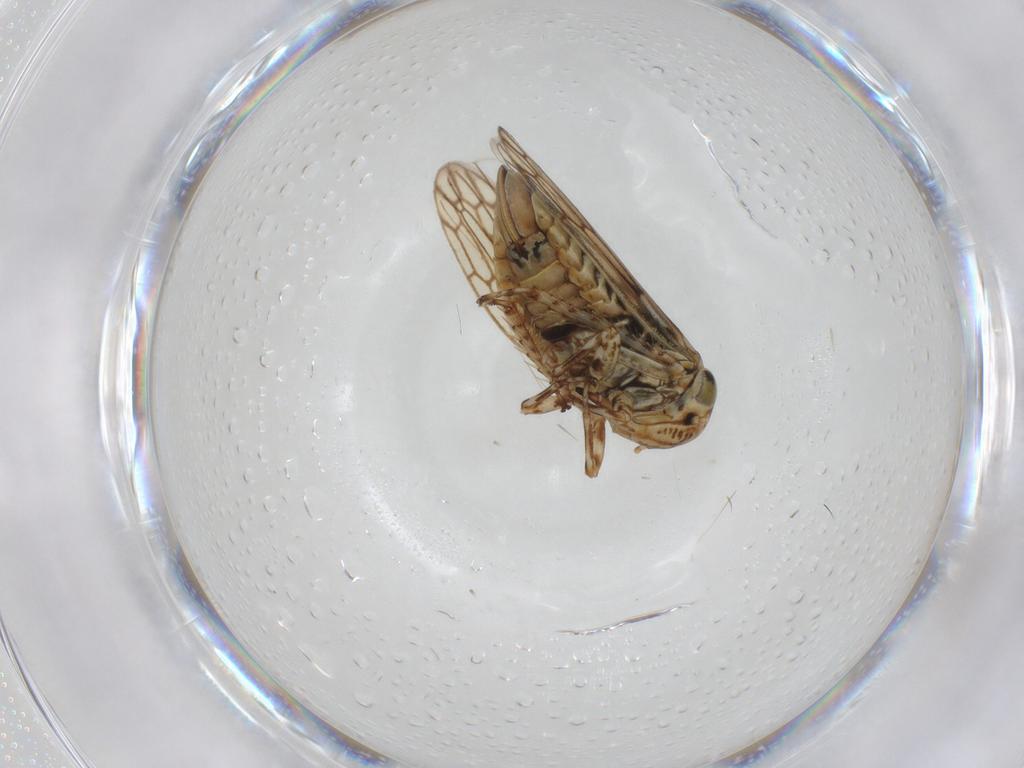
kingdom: Animalia
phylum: Arthropoda
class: Insecta
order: Hemiptera
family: Cicadellidae
